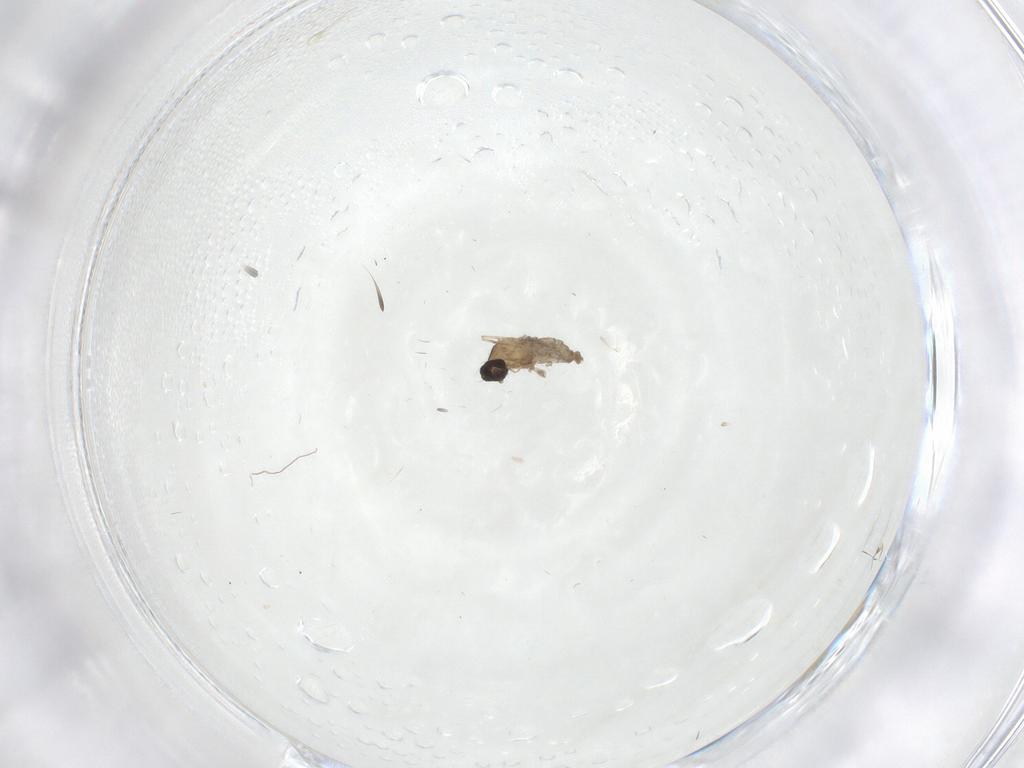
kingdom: Animalia
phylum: Arthropoda
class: Insecta
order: Diptera
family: Cecidomyiidae
